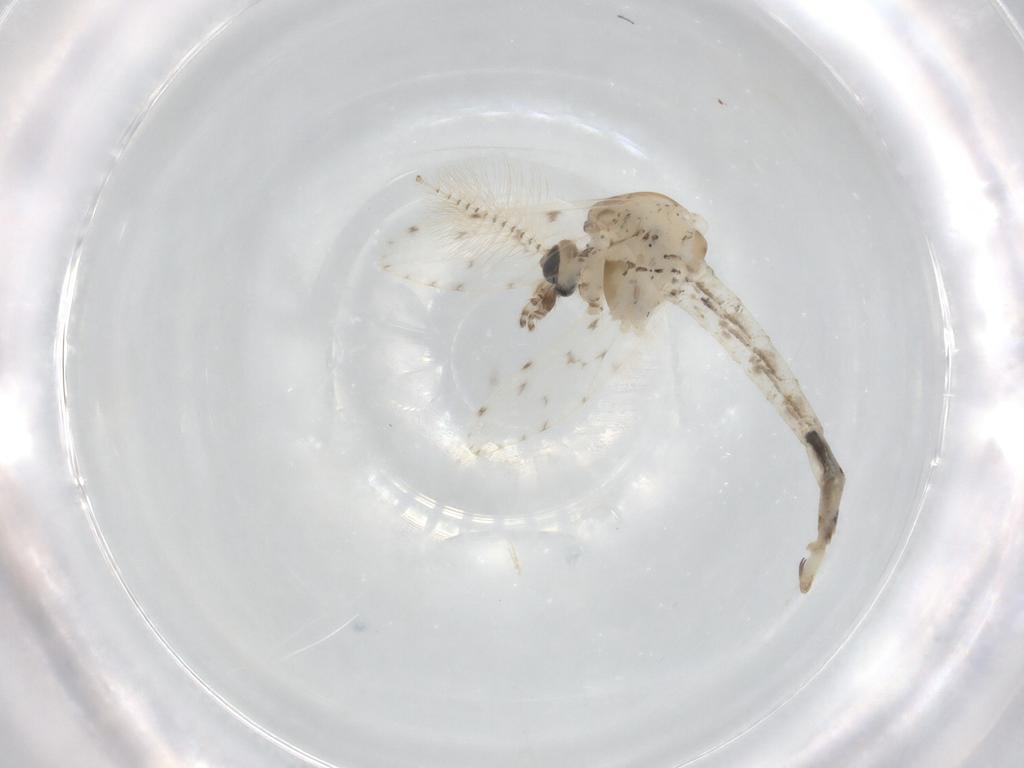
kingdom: Animalia
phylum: Arthropoda
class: Insecta
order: Diptera
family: Chaoboridae
